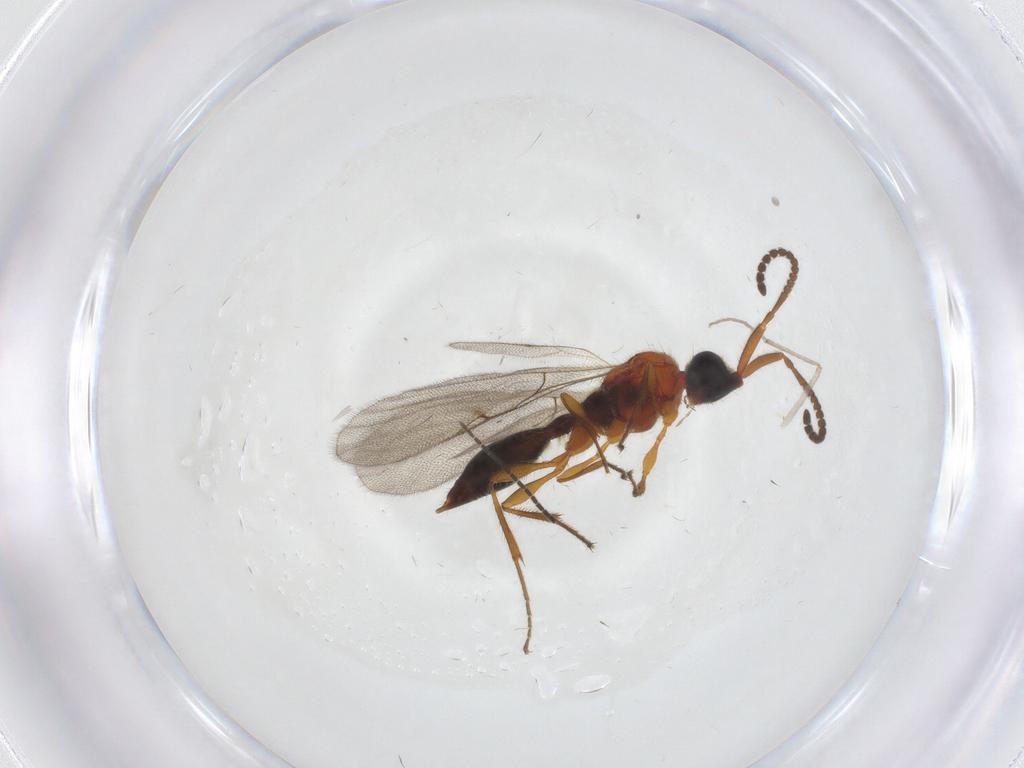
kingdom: Animalia
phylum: Arthropoda
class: Insecta
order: Hymenoptera
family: Diapriidae
